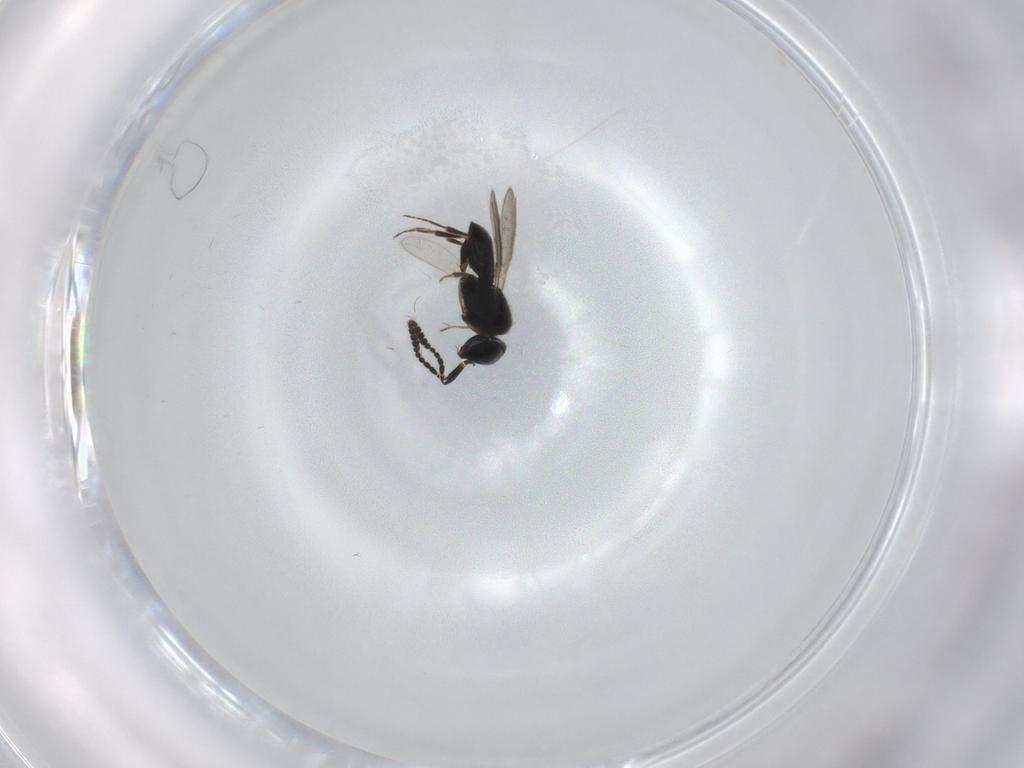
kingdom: Animalia
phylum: Arthropoda
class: Insecta
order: Hymenoptera
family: Scelionidae
